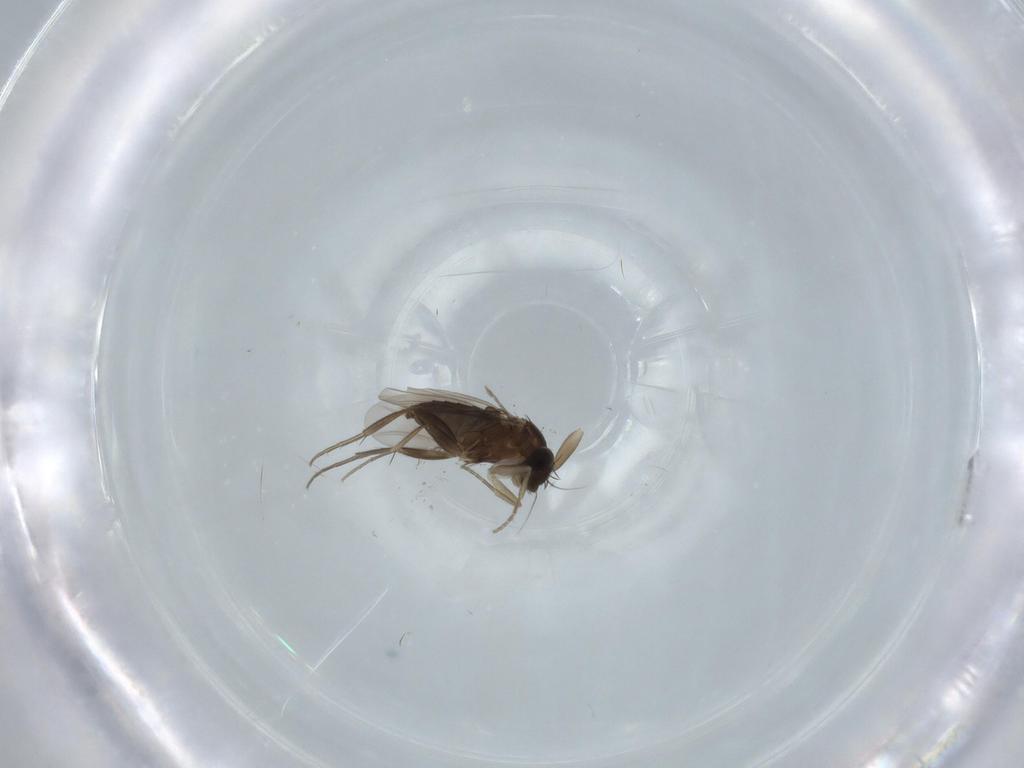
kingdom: Animalia
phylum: Arthropoda
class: Insecta
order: Diptera
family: Phoridae
